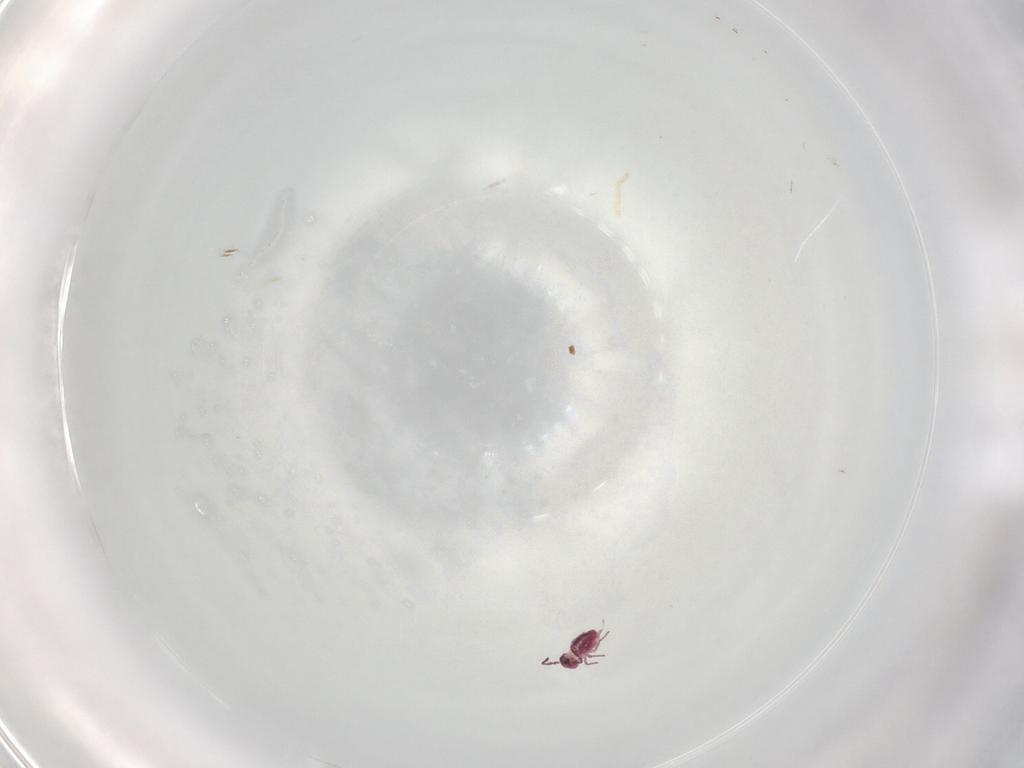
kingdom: Animalia
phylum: Arthropoda
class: Collembola
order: Symphypleona
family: Sminthurididae
